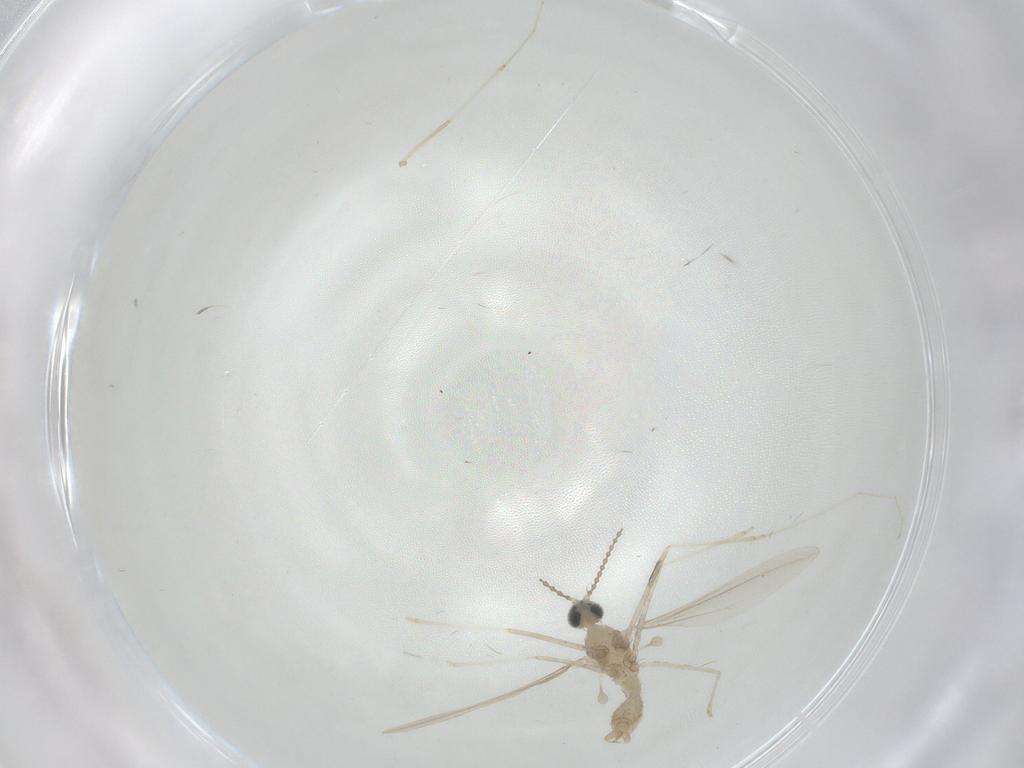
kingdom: Animalia
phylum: Arthropoda
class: Insecta
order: Diptera
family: Cecidomyiidae
